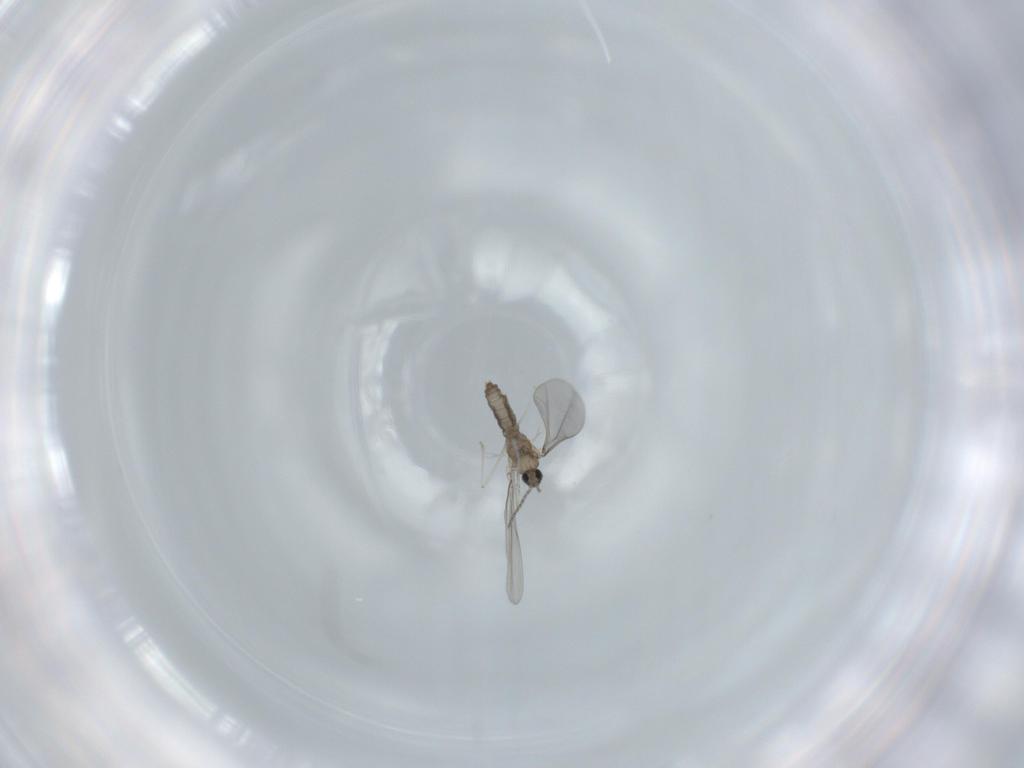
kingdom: Animalia
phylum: Arthropoda
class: Insecta
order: Diptera
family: Cecidomyiidae
